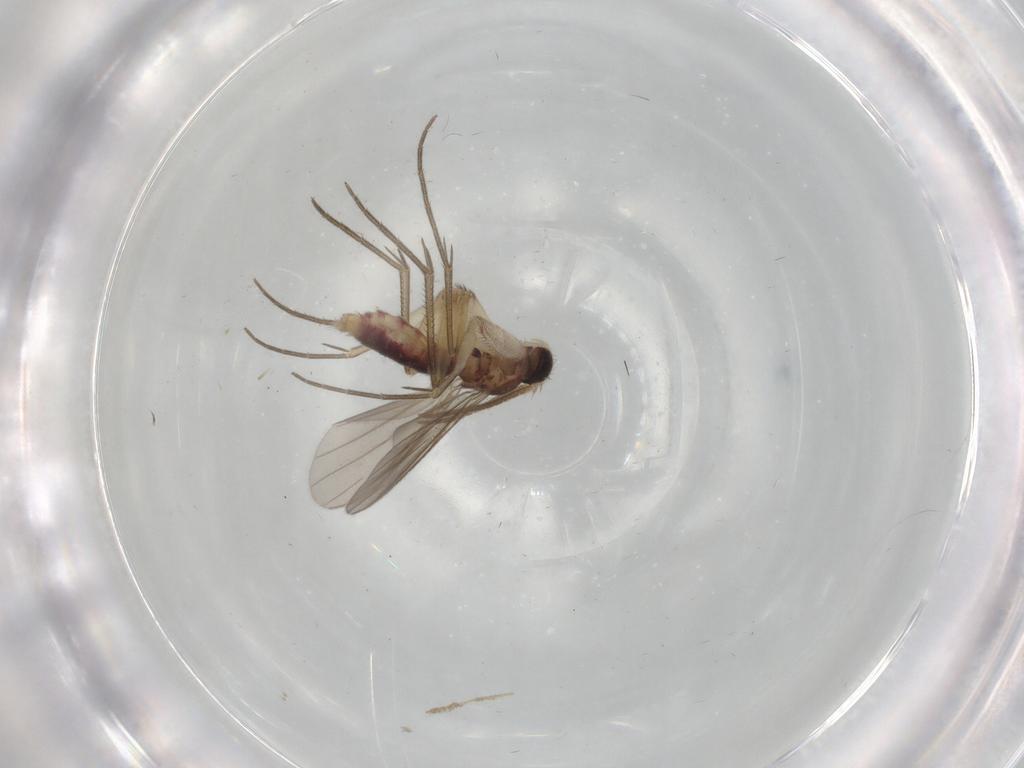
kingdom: Animalia
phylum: Arthropoda
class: Insecta
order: Diptera
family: Mycetophilidae
